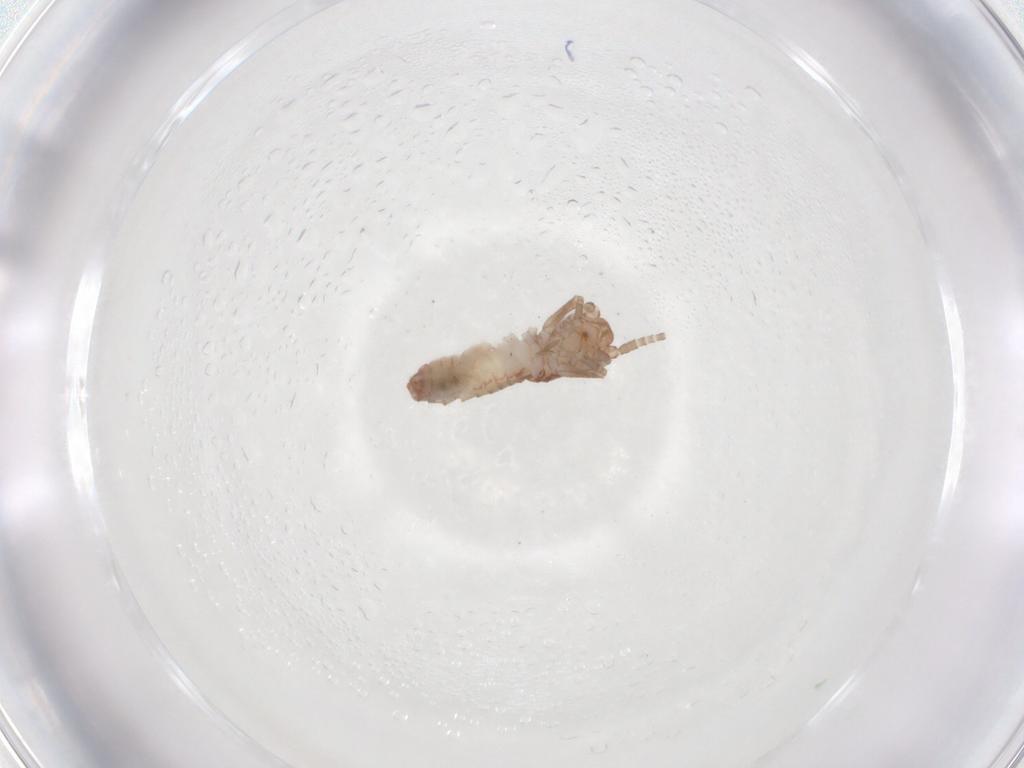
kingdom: Animalia
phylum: Arthropoda
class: Insecta
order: Orthoptera
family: Mogoplistidae
